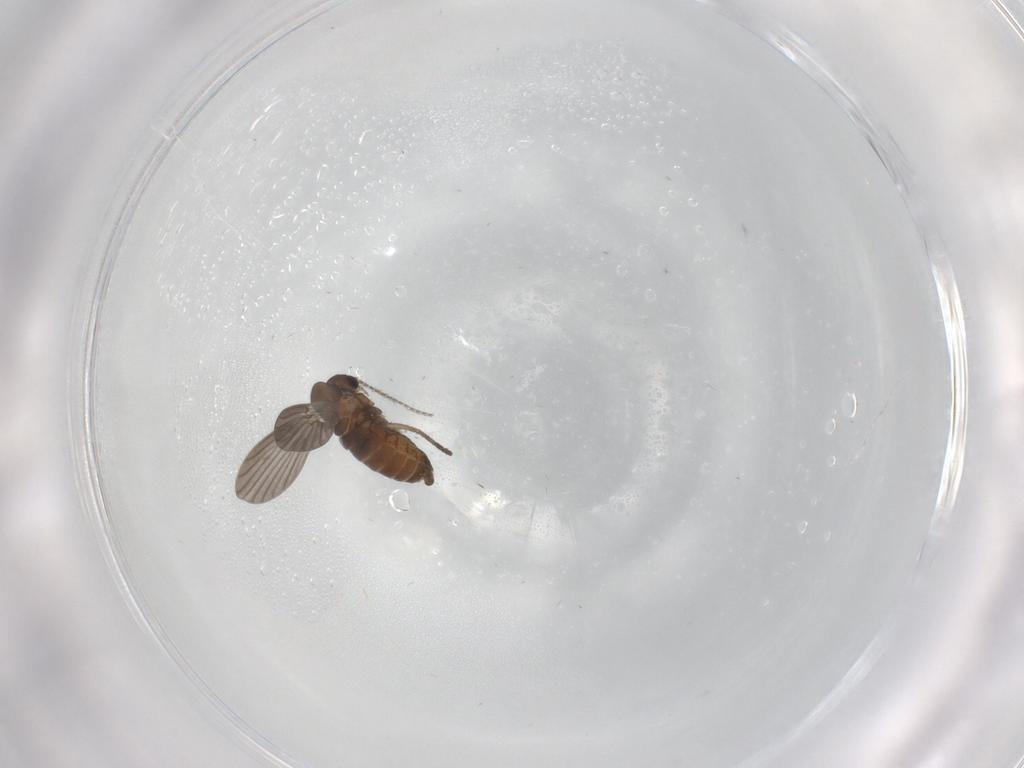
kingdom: Animalia
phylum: Arthropoda
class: Insecta
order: Diptera
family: Psychodidae
